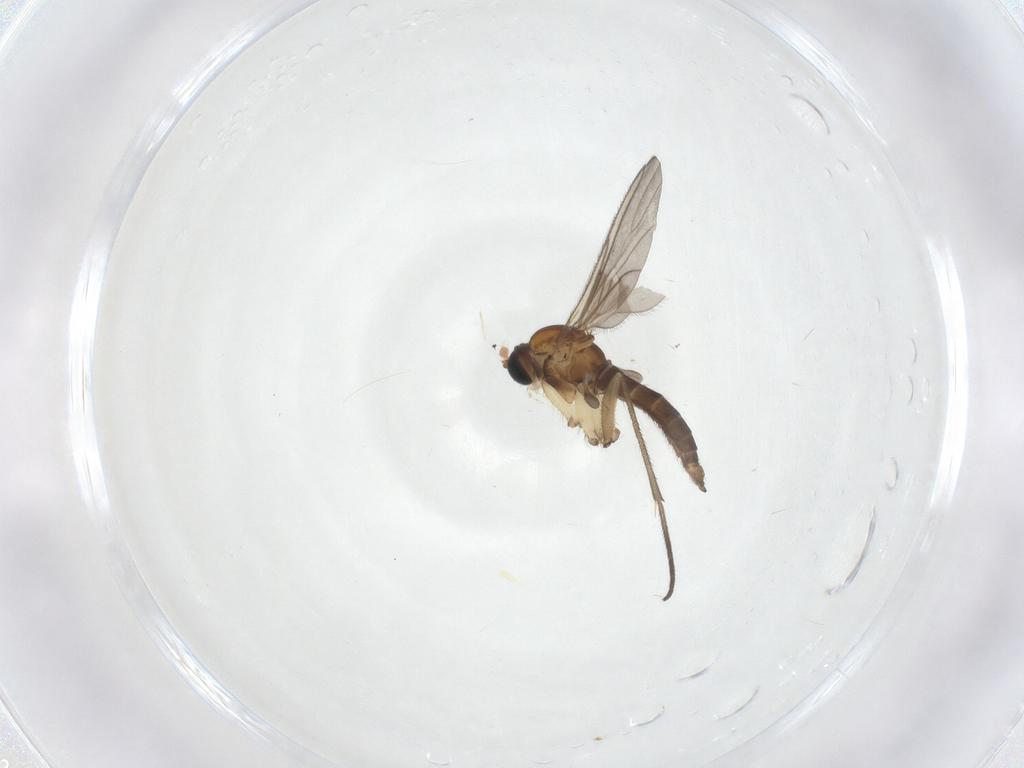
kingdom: Animalia
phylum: Arthropoda
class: Insecta
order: Diptera
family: Sciaridae
